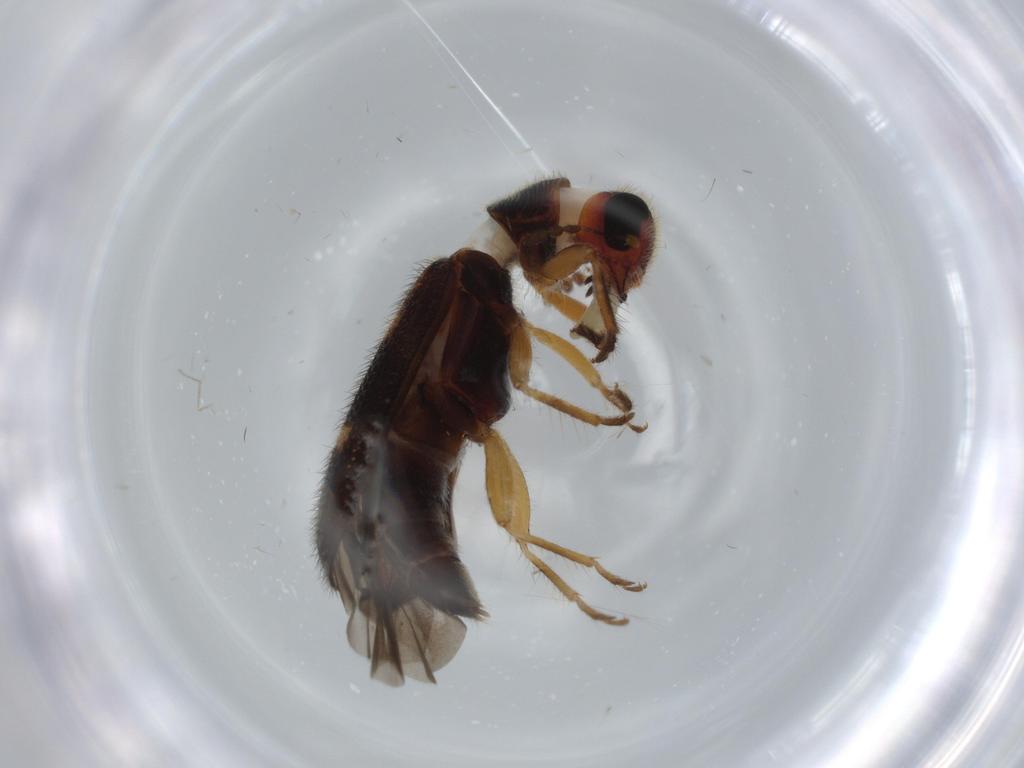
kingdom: Animalia
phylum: Arthropoda
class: Insecta
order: Coleoptera
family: Cleridae
